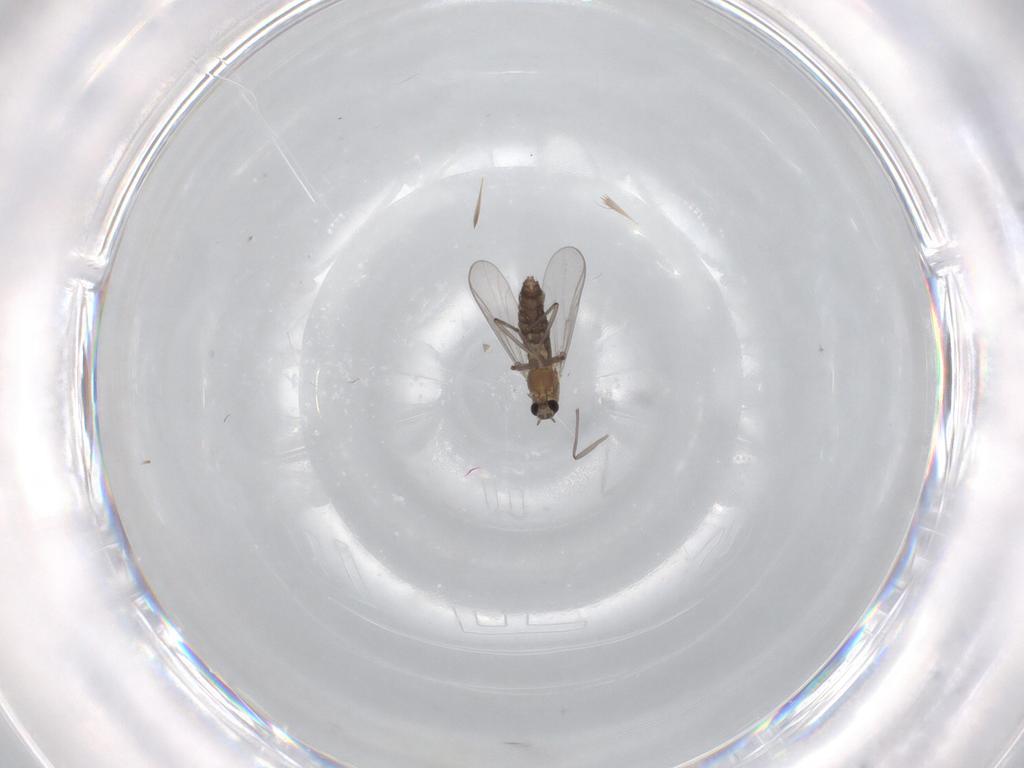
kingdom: Animalia
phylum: Arthropoda
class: Insecta
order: Diptera
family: Chironomidae
